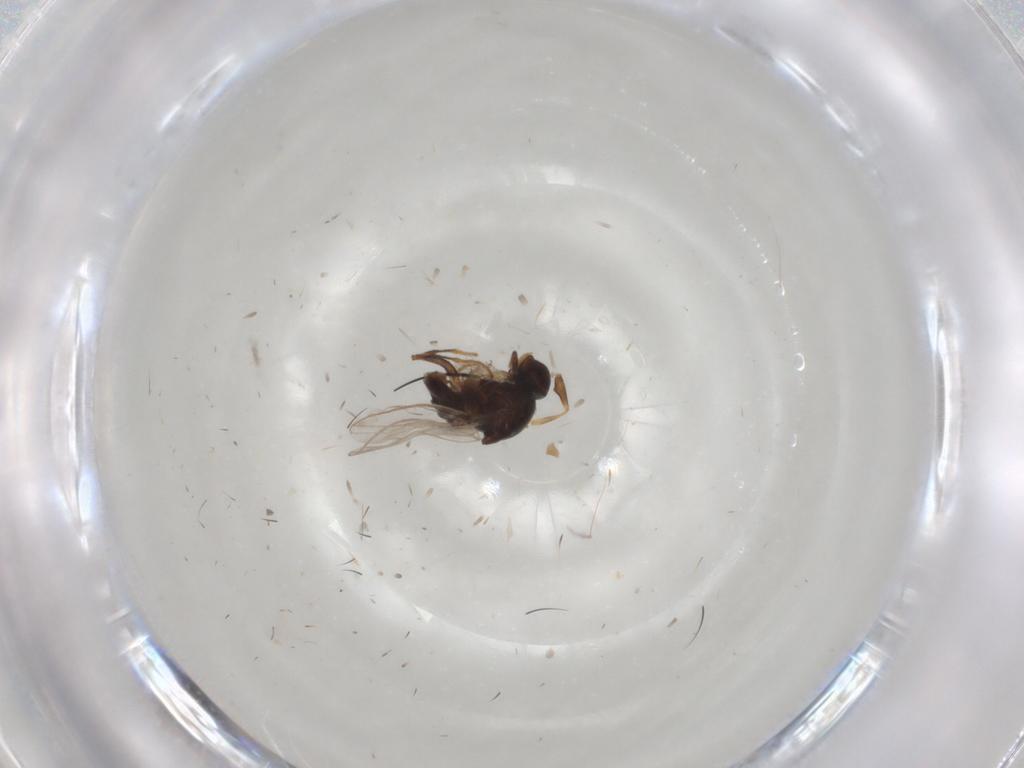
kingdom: Animalia
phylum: Arthropoda
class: Insecta
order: Diptera
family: Chloropidae
